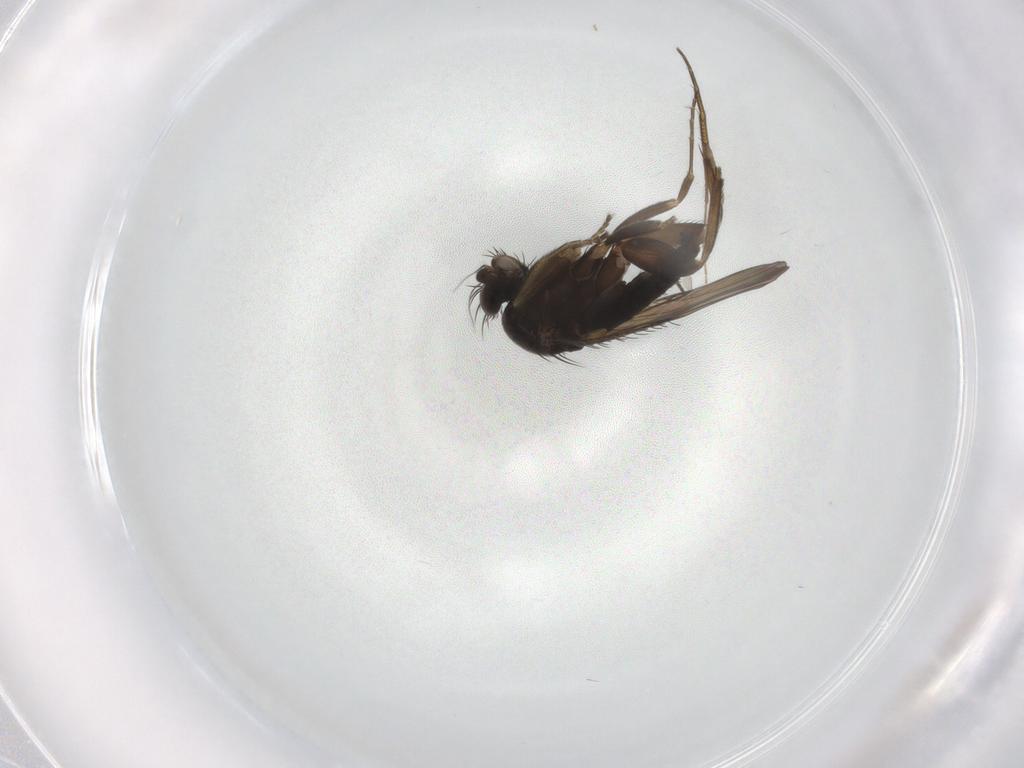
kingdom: Animalia
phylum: Arthropoda
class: Insecta
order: Diptera
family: Phoridae
